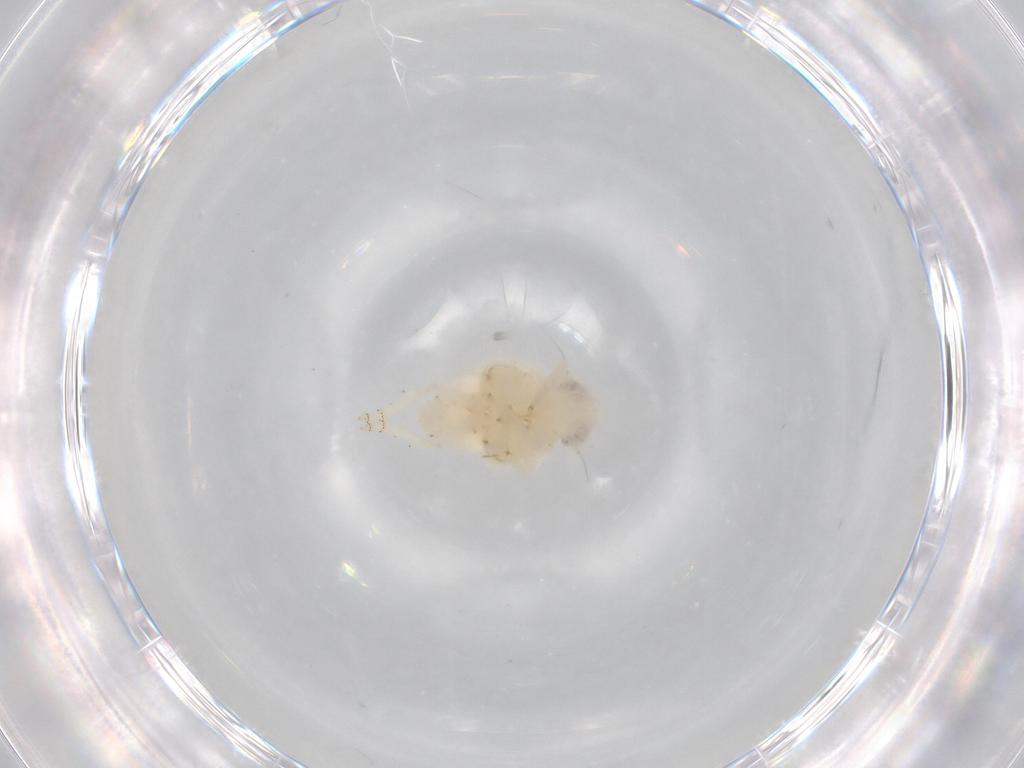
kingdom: Animalia
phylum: Arthropoda
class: Insecta
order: Hemiptera
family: Nogodinidae
